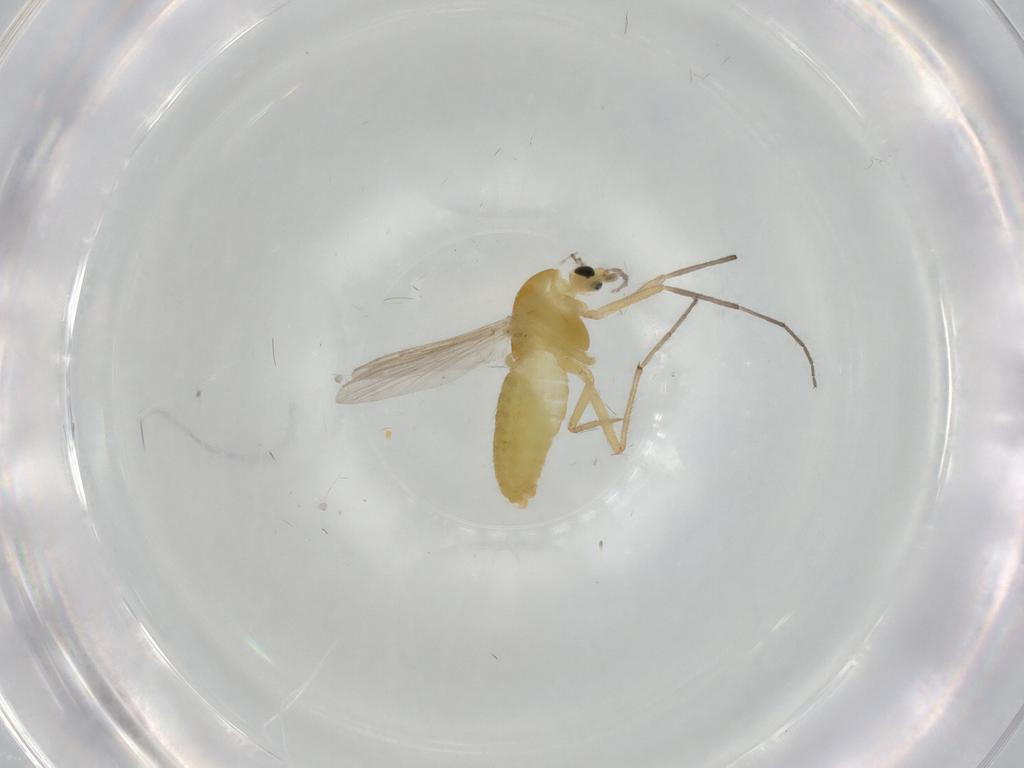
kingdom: Animalia
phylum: Arthropoda
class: Insecta
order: Diptera
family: Chironomidae
